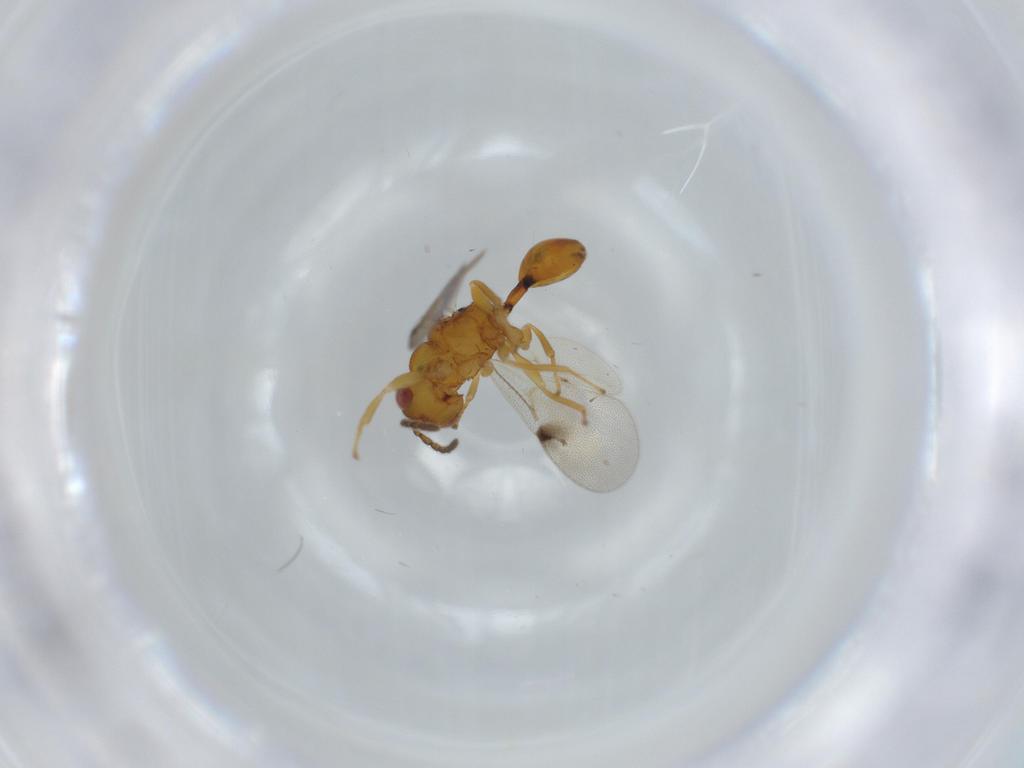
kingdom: Animalia
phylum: Arthropoda
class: Insecta
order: Hymenoptera
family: Formicidae
